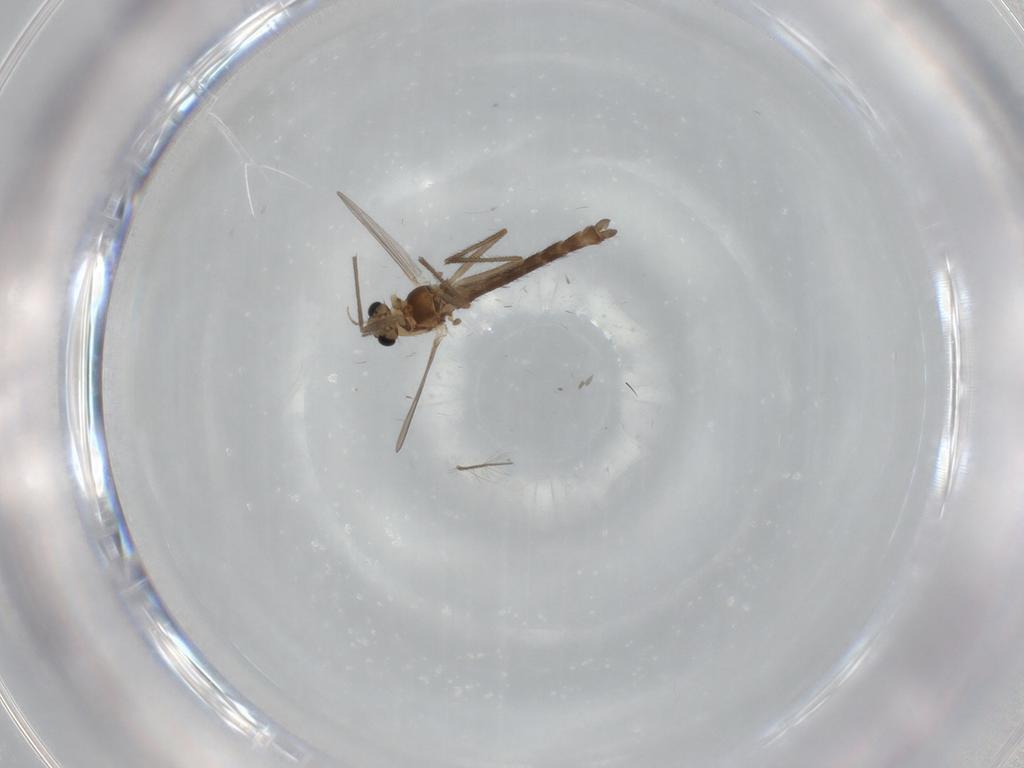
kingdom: Animalia
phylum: Arthropoda
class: Insecta
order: Diptera
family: Chironomidae
